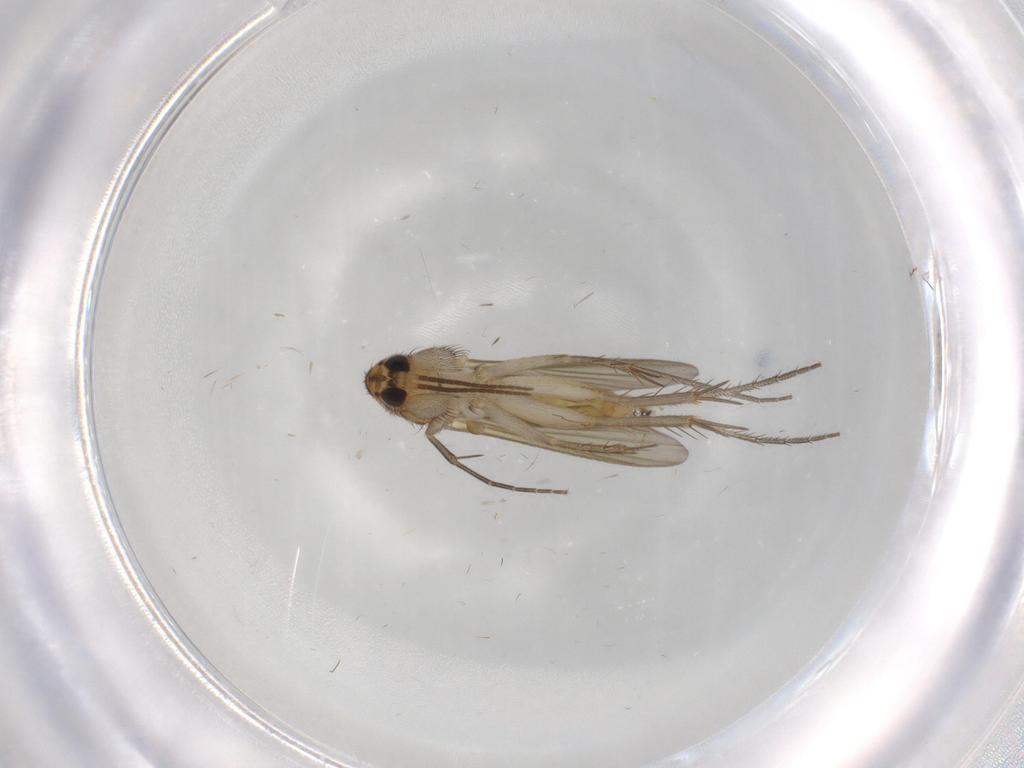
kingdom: Animalia
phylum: Arthropoda
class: Insecta
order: Diptera
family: Mycetophilidae
